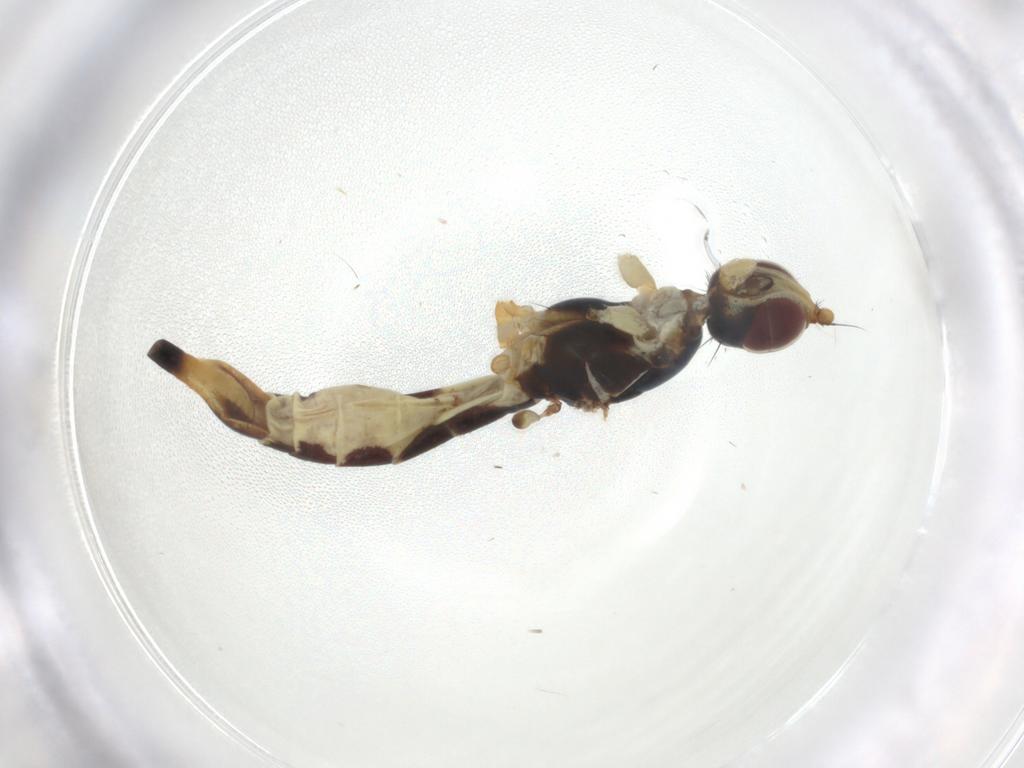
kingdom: Animalia
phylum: Arthropoda
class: Insecta
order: Diptera
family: Micropezidae
